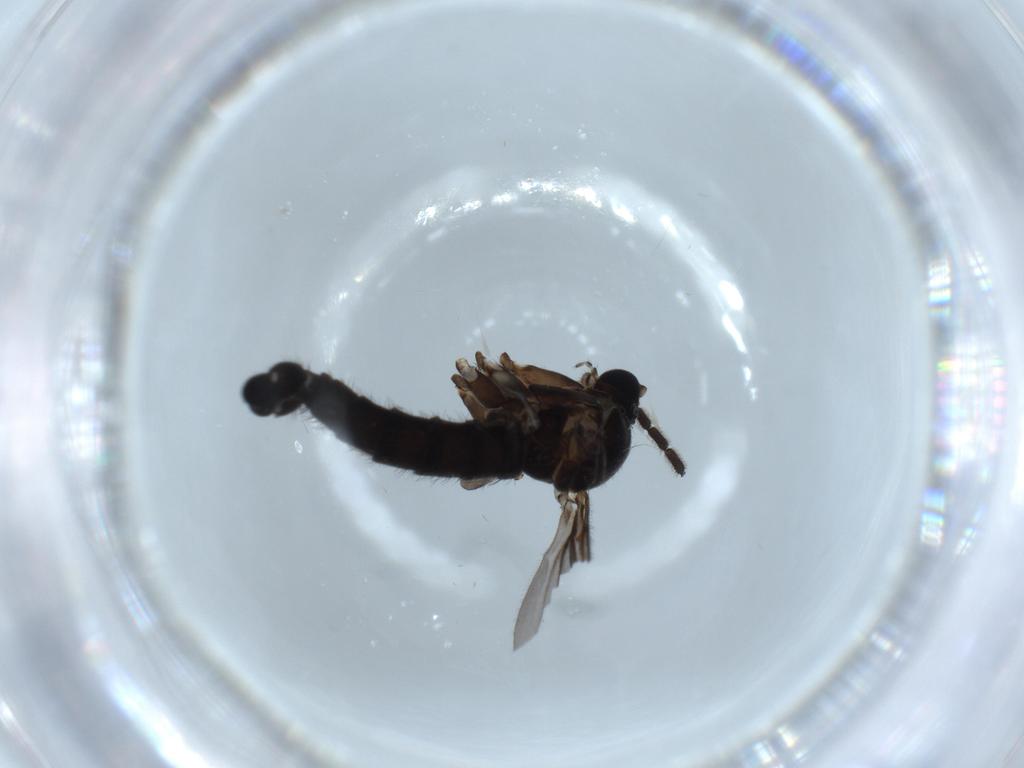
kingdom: Animalia
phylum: Arthropoda
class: Insecta
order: Diptera
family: Sciaridae
